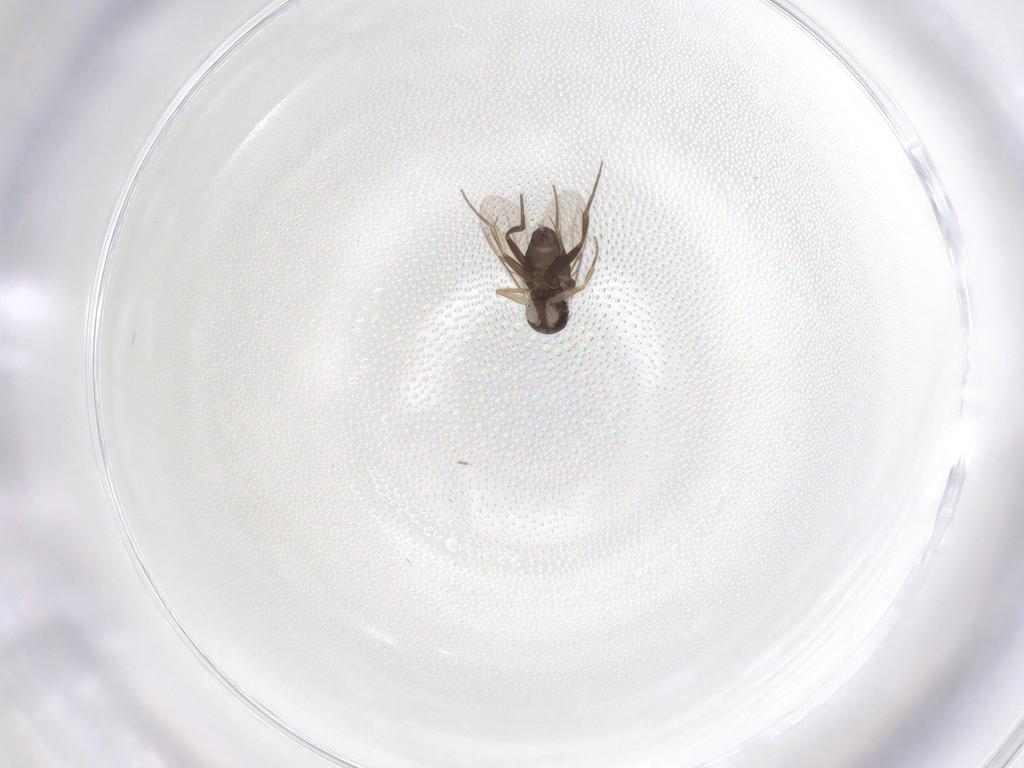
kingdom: Animalia
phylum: Arthropoda
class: Insecta
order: Diptera
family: Phoridae
